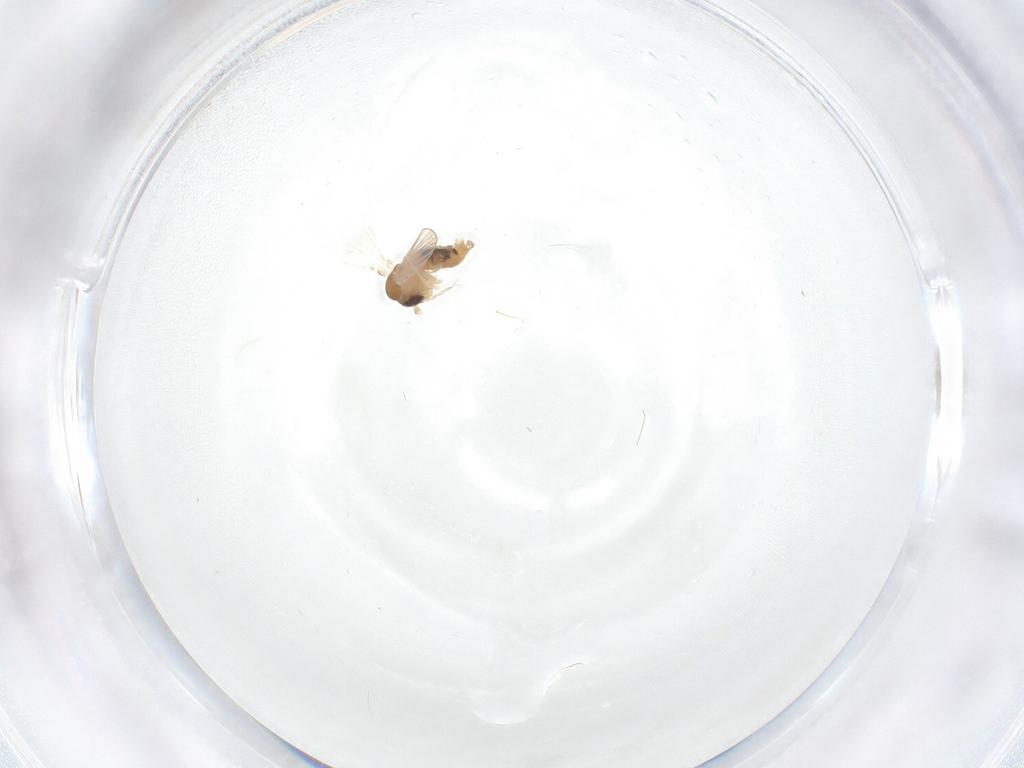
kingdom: Animalia
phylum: Arthropoda
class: Insecta
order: Diptera
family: Psychodidae
